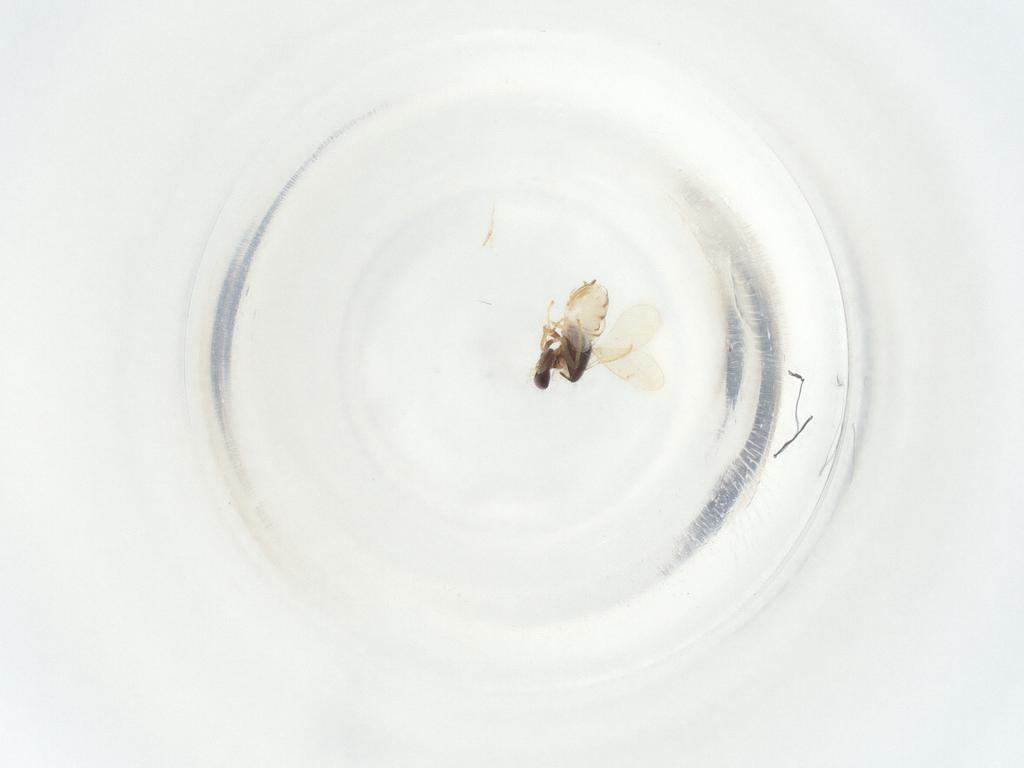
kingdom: Animalia
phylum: Arthropoda
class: Insecta
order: Hymenoptera
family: Eulophidae
